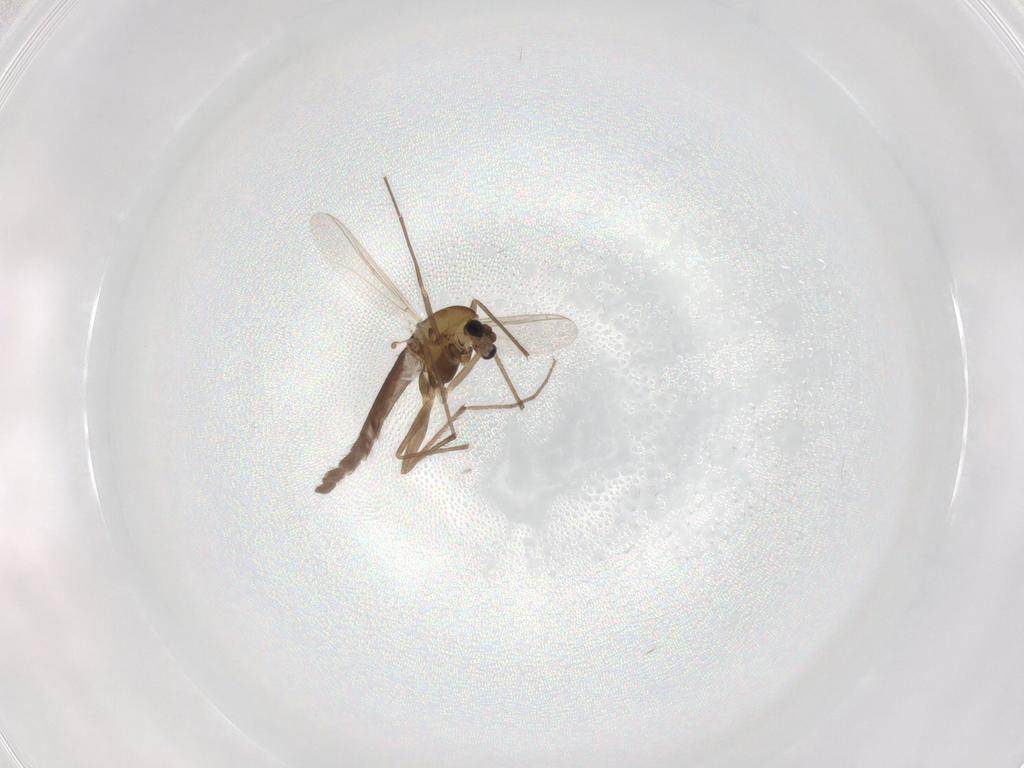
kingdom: Animalia
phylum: Arthropoda
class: Insecta
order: Diptera
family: Chironomidae
